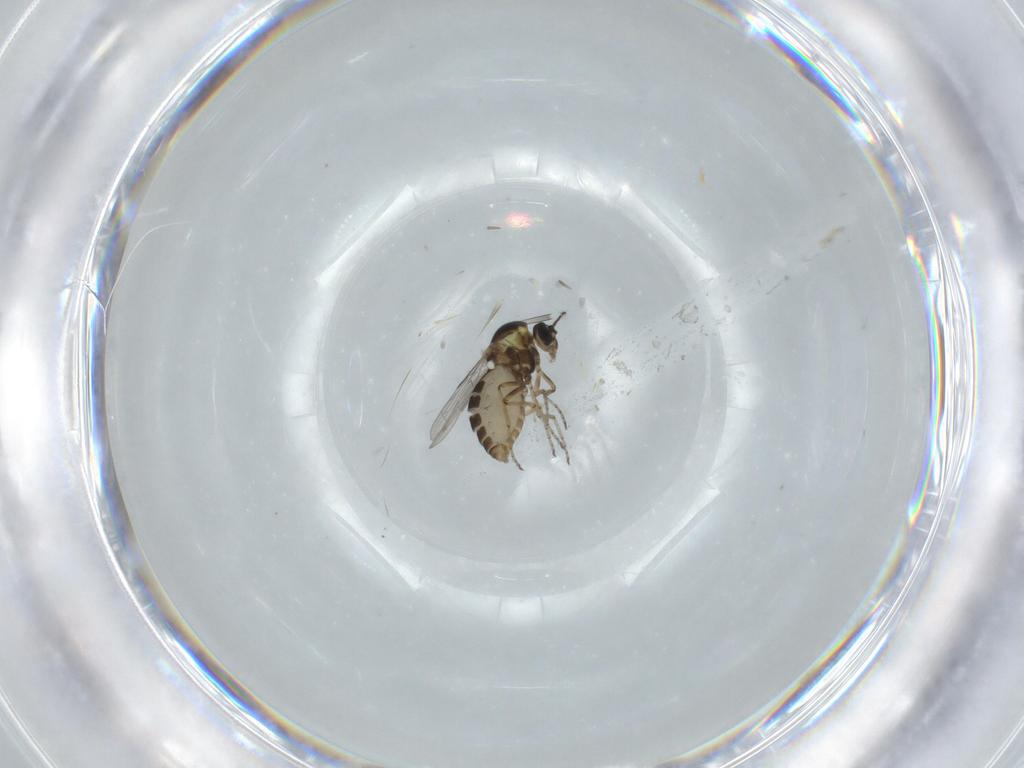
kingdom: Animalia
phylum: Arthropoda
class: Insecta
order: Diptera
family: Ceratopogonidae
